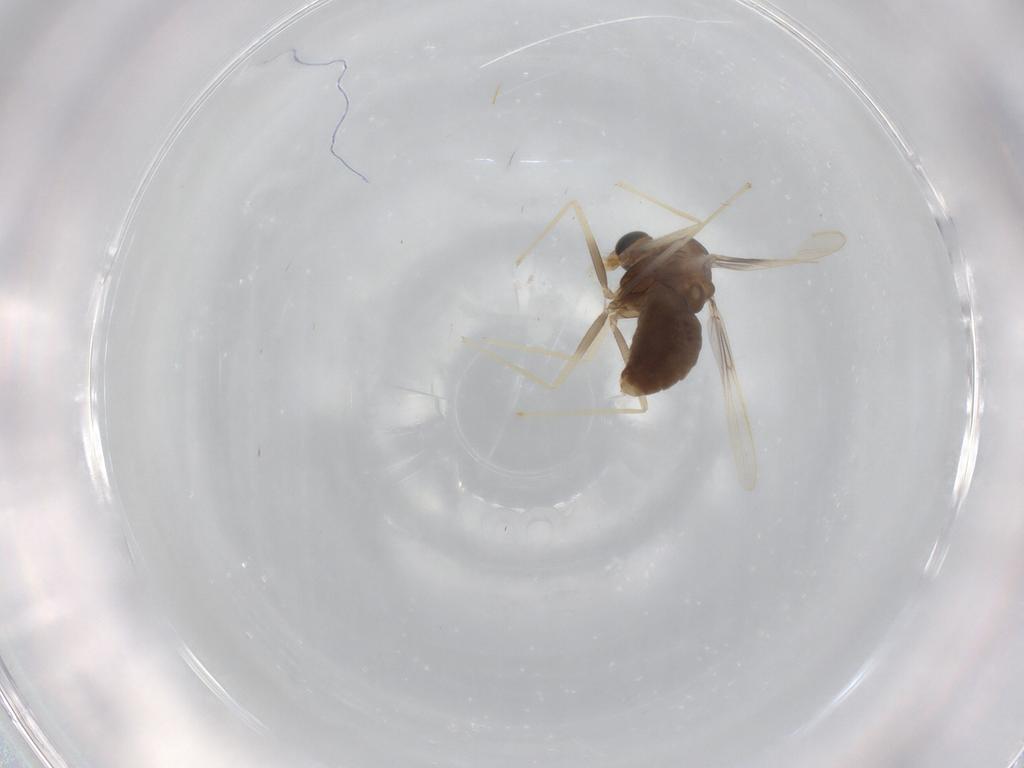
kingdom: Animalia
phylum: Arthropoda
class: Insecta
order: Diptera
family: Chironomidae
